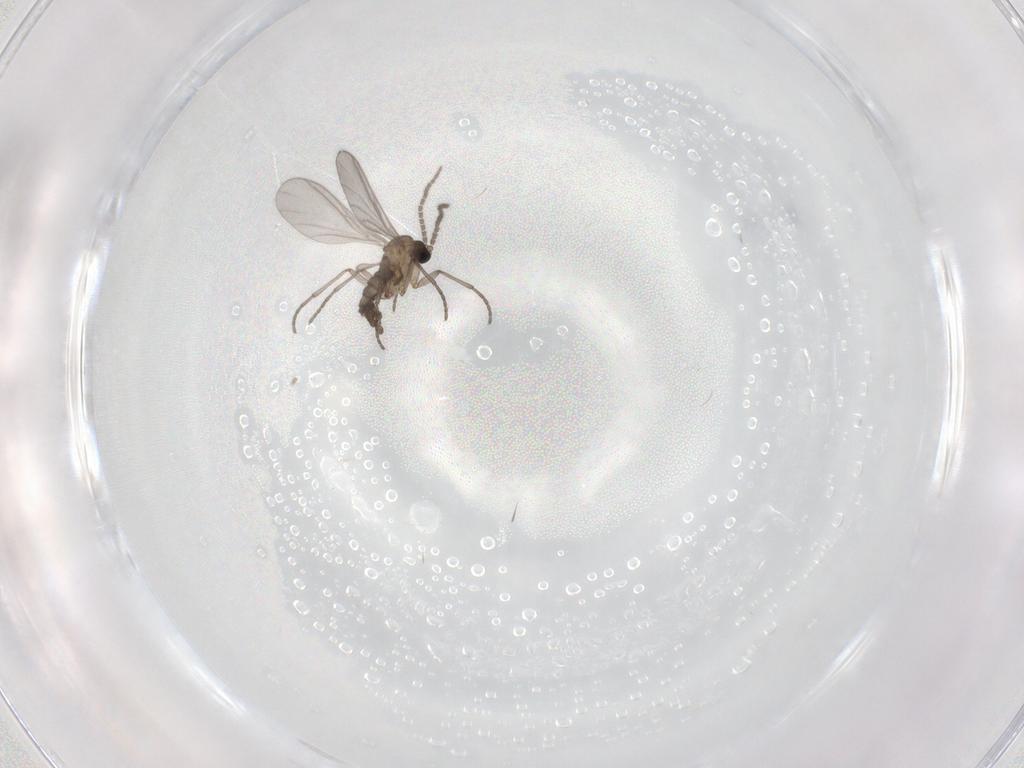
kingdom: Animalia
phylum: Arthropoda
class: Insecta
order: Diptera
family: Sciaridae
